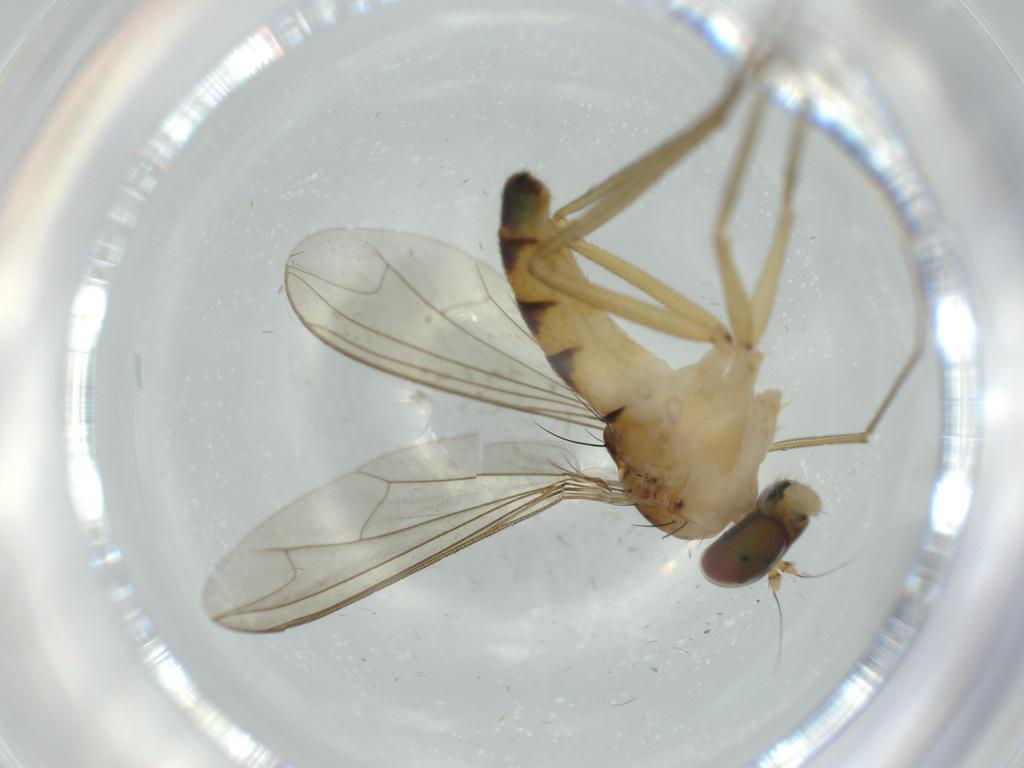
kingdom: Animalia
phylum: Arthropoda
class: Insecta
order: Diptera
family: Dolichopodidae
